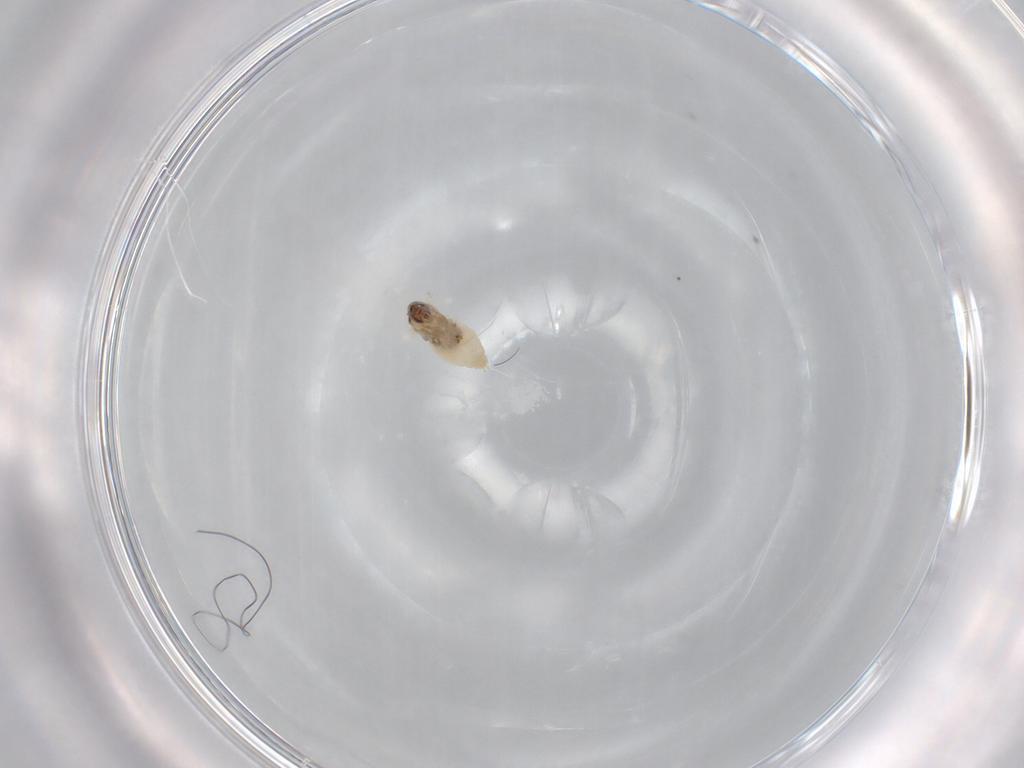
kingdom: Animalia
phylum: Arthropoda
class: Insecta
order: Diptera
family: Cecidomyiidae
